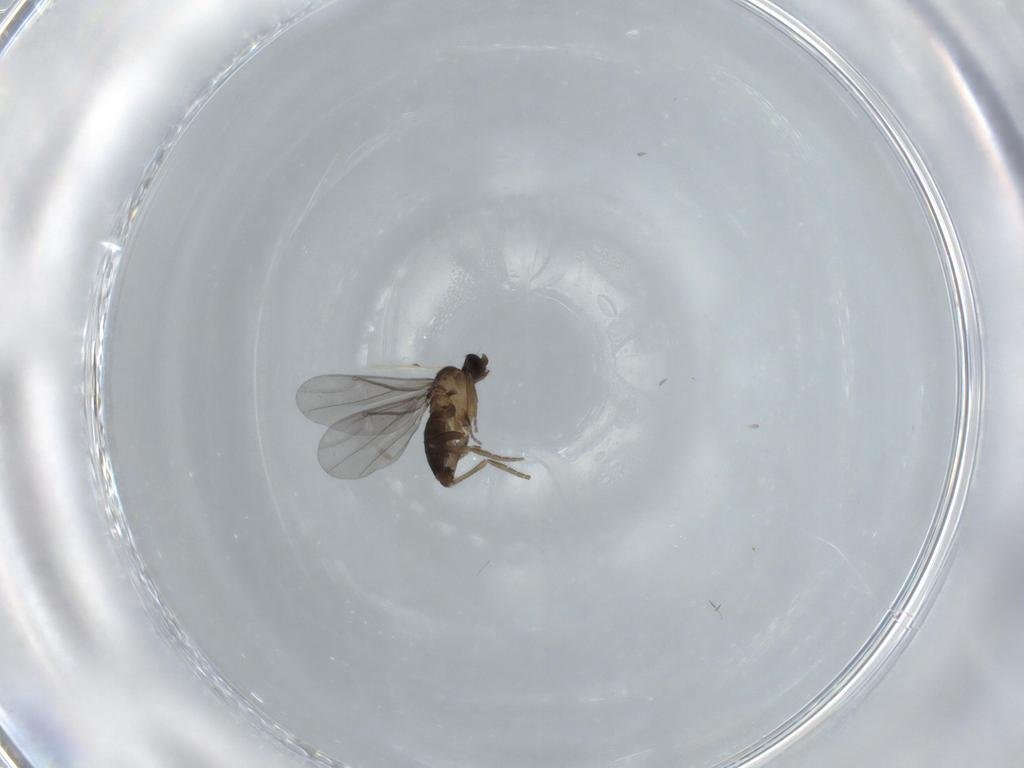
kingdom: Animalia
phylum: Arthropoda
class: Insecta
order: Diptera
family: Phoridae
